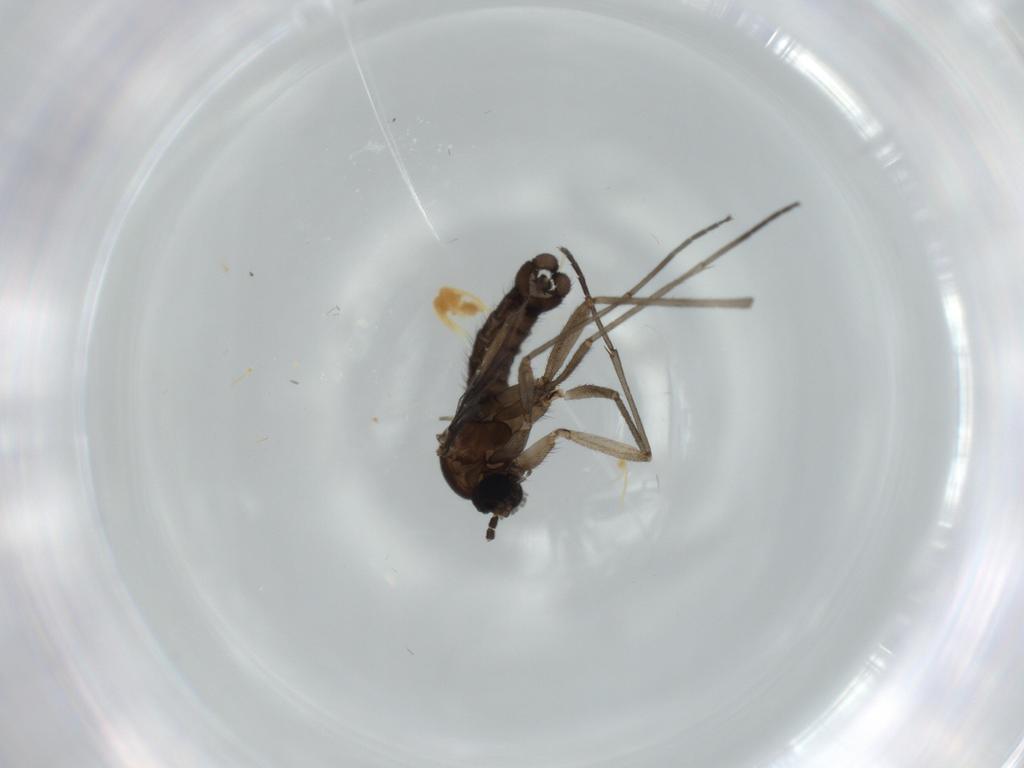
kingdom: Animalia
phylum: Arthropoda
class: Insecta
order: Diptera
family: Sciaridae
